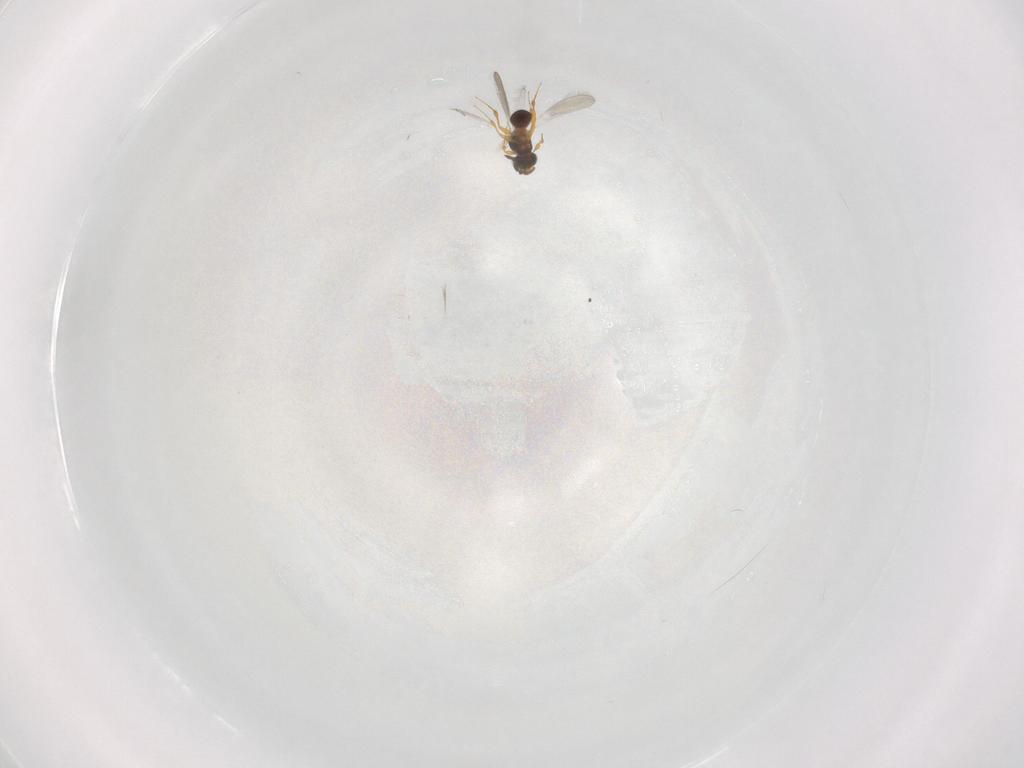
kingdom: Animalia
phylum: Arthropoda
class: Insecta
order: Hymenoptera
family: Platygastridae
